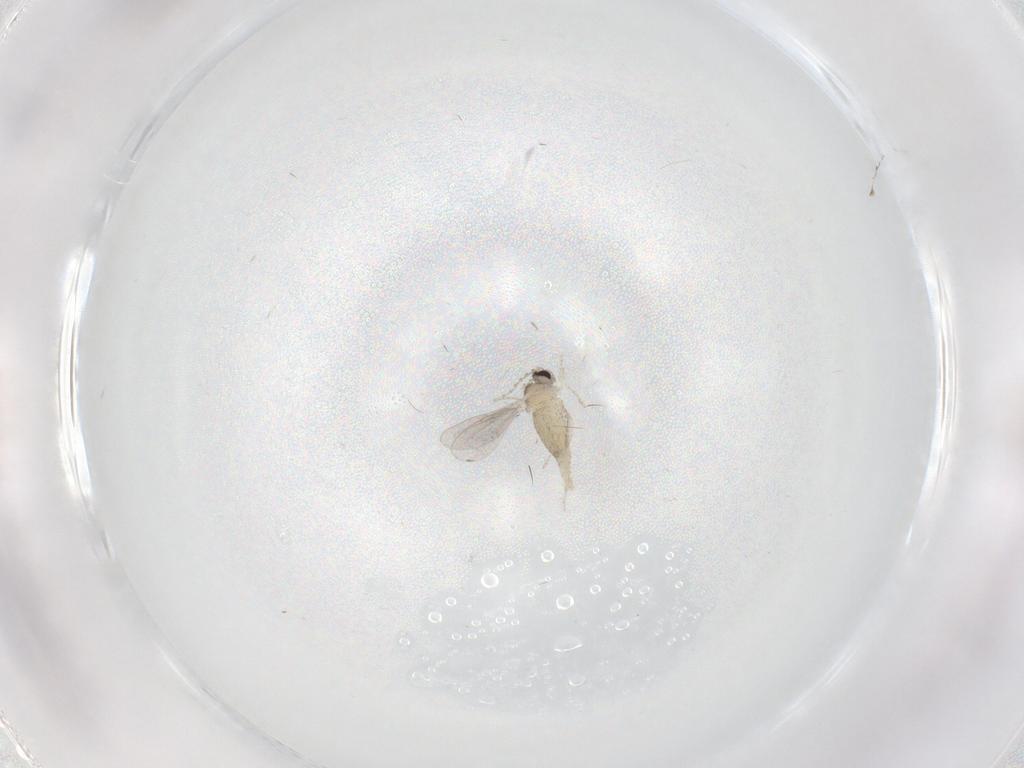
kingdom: Animalia
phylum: Arthropoda
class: Insecta
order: Diptera
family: Cecidomyiidae
